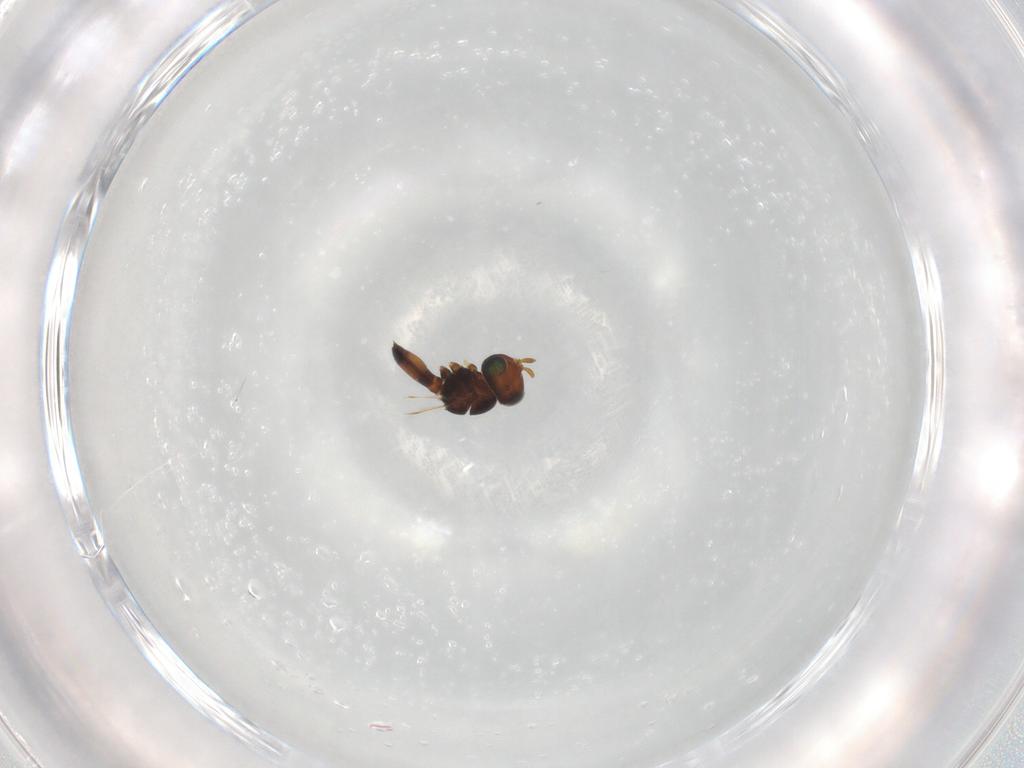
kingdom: Animalia
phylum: Arthropoda
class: Insecta
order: Hymenoptera
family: Scelionidae
